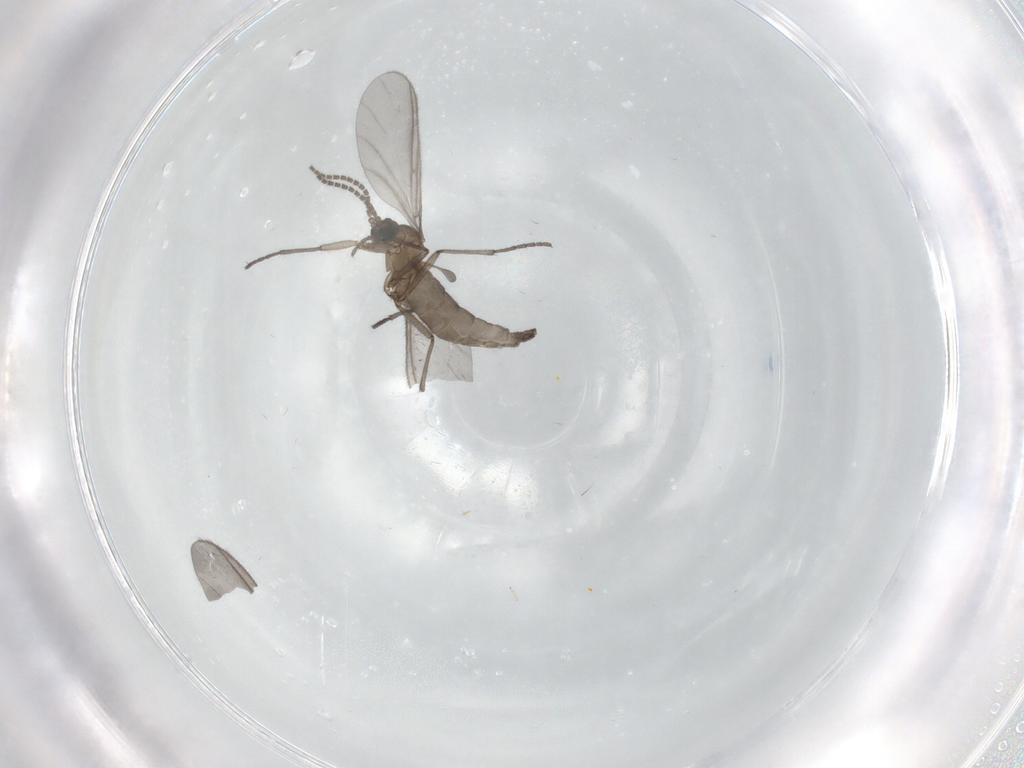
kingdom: Animalia
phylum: Arthropoda
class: Insecta
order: Diptera
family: Sciaridae
